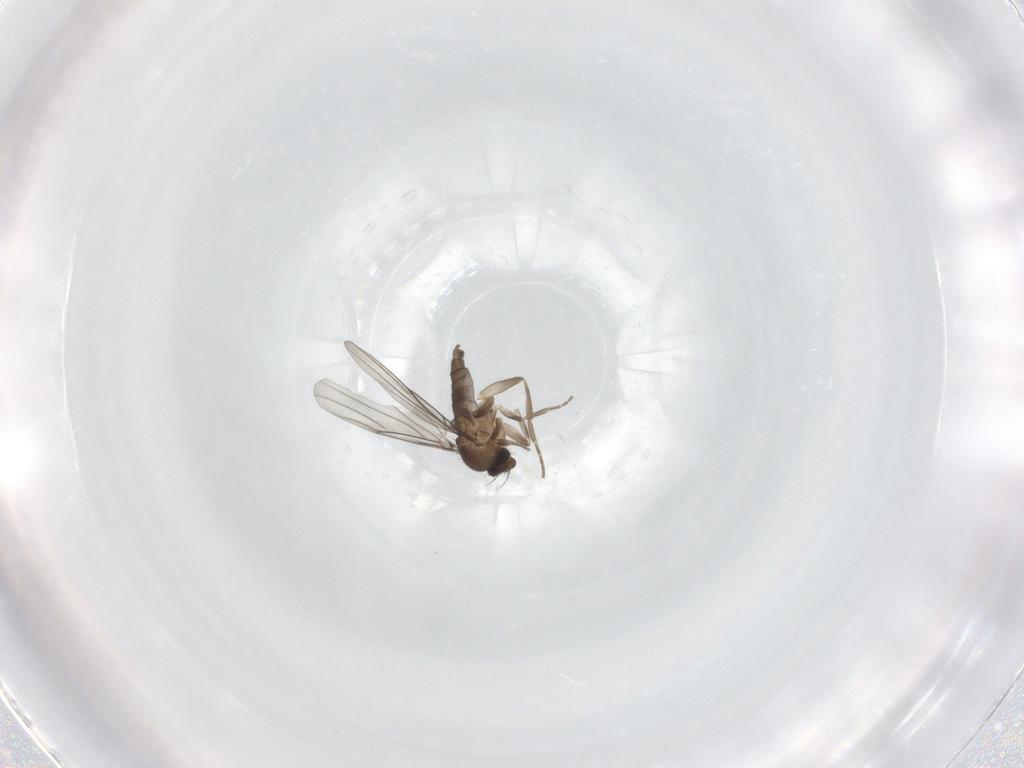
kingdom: Animalia
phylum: Arthropoda
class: Insecta
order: Diptera
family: Phoridae
